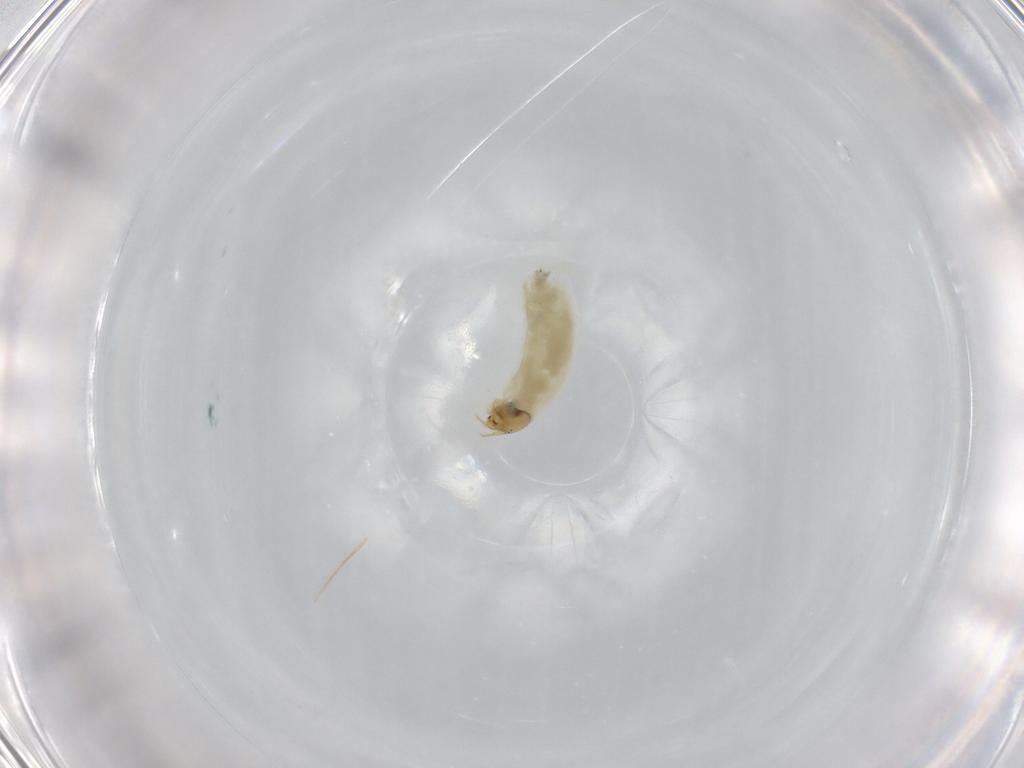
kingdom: Animalia
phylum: Arthropoda
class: Insecta
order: Diptera
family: Chironomidae
